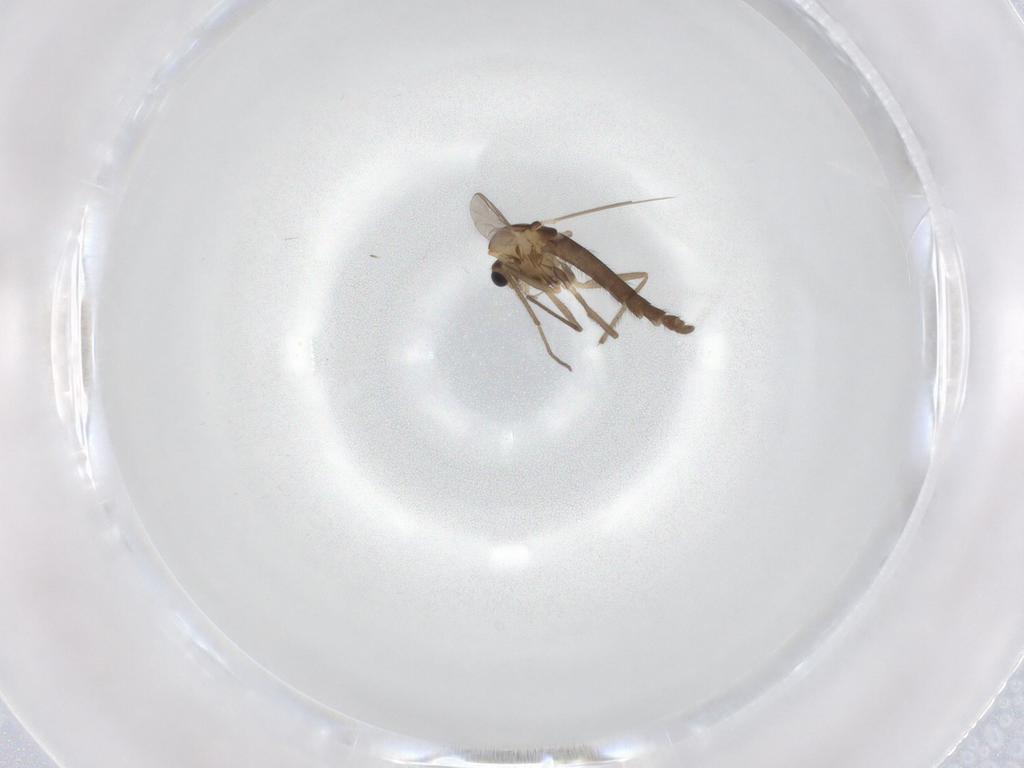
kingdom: Animalia
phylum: Arthropoda
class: Insecta
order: Diptera
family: Chironomidae
